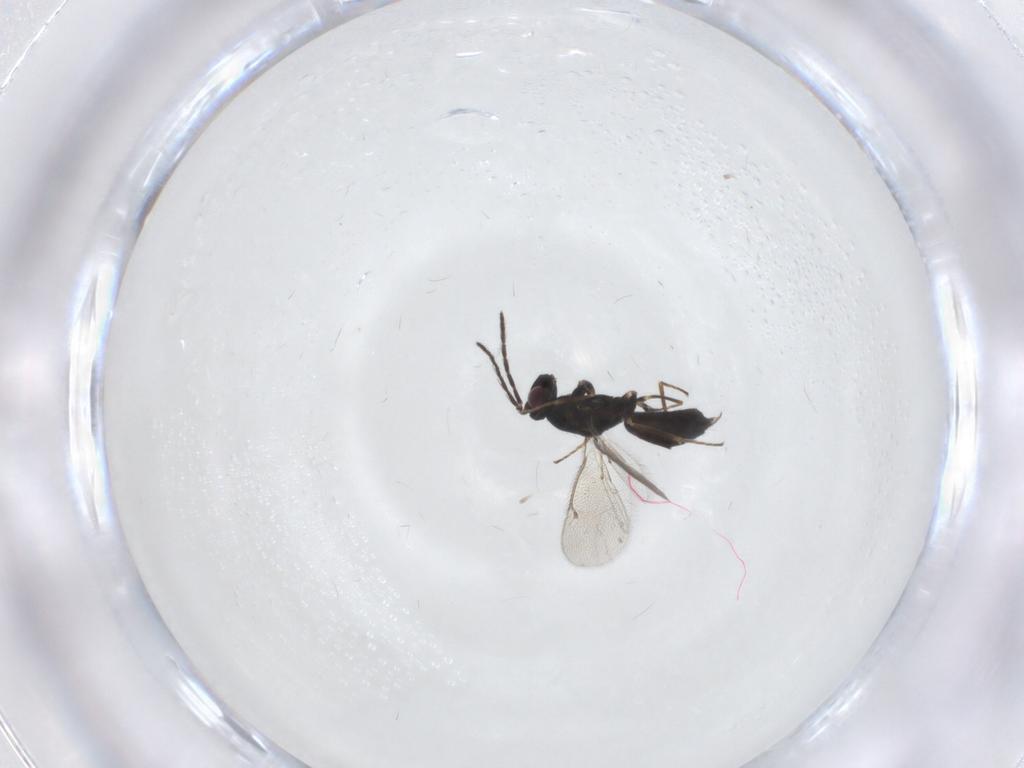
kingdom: Animalia
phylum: Arthropoda
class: Insecta
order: Hymenoptera
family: Eulophidae
